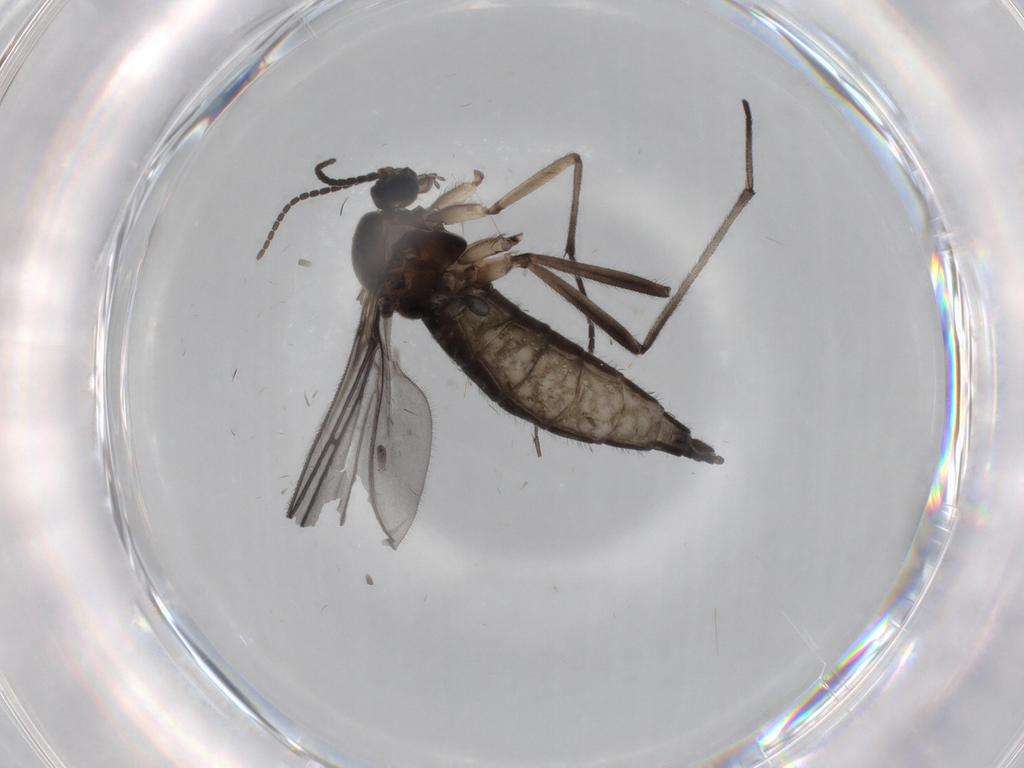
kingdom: Animalia
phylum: Arthropoda
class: Insecta
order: Diptera
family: Sciaridae
